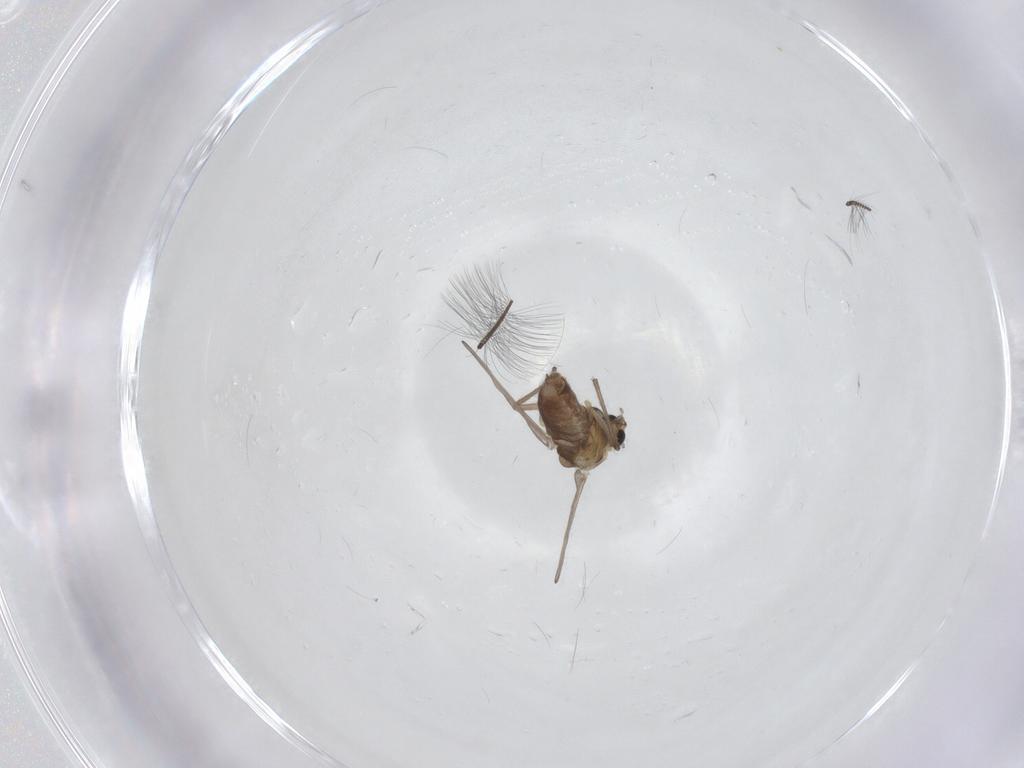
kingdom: Animalia
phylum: Arthropoda
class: Insecta
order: Diptera
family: Chironomidae
